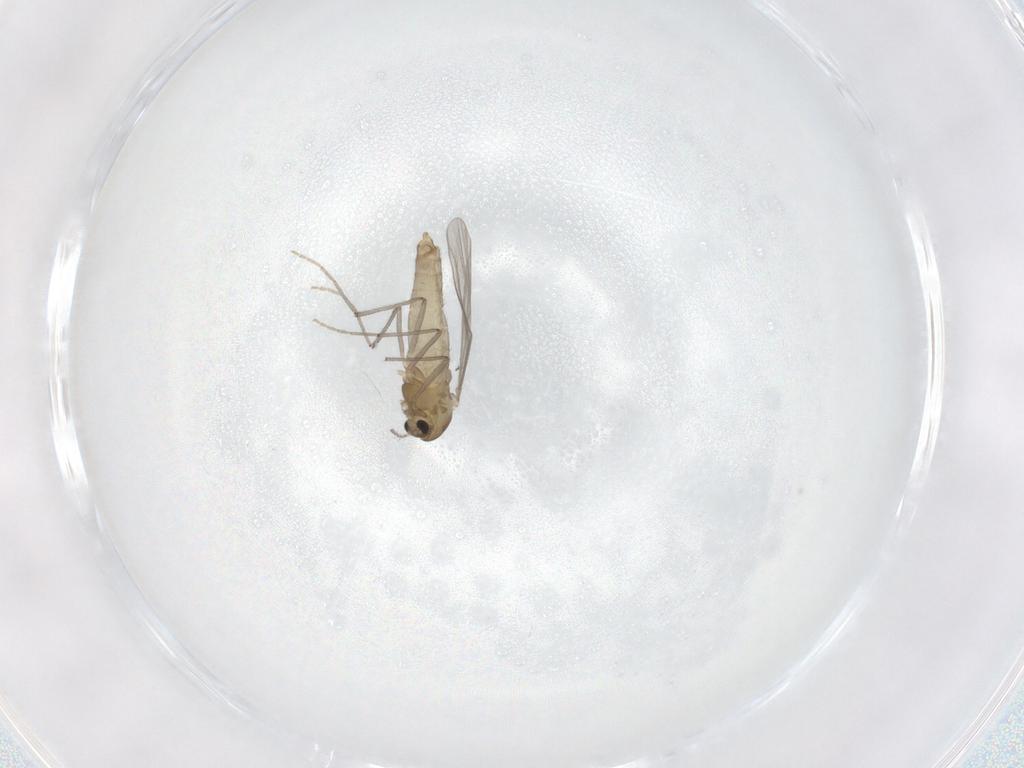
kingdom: Animalia
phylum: Arthropoda
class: Insecta
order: Diptera
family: Chironomidae
